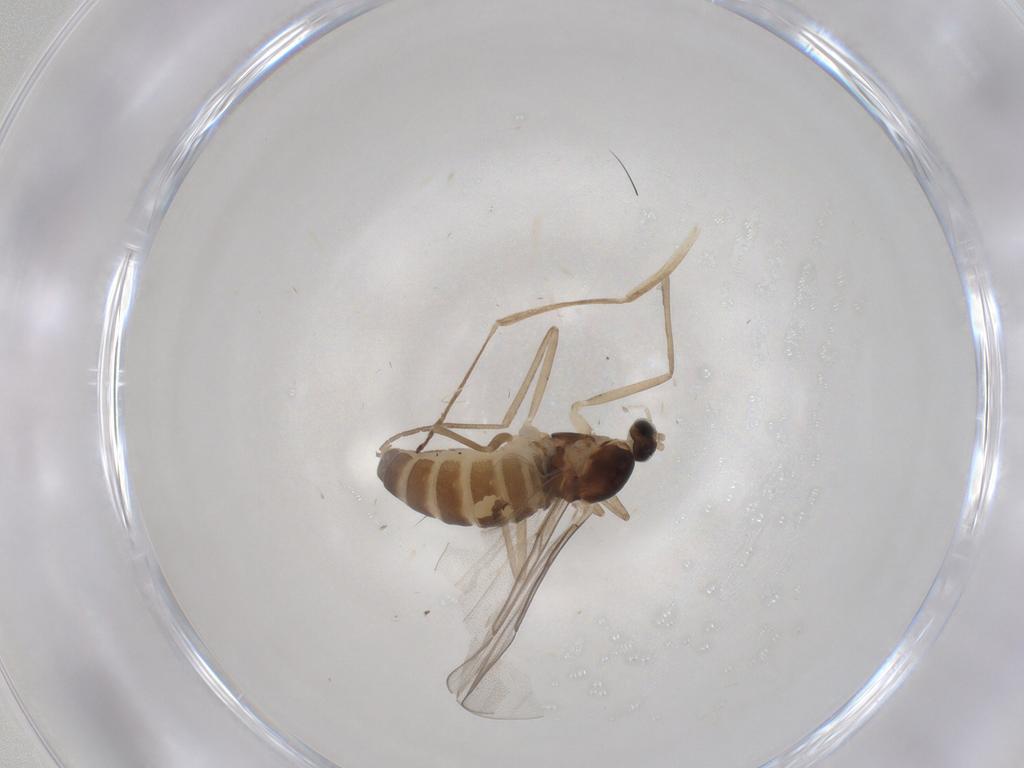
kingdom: Animalia
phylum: Arthropoda
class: Insecta
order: Diptera
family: Cecidomyiidae
